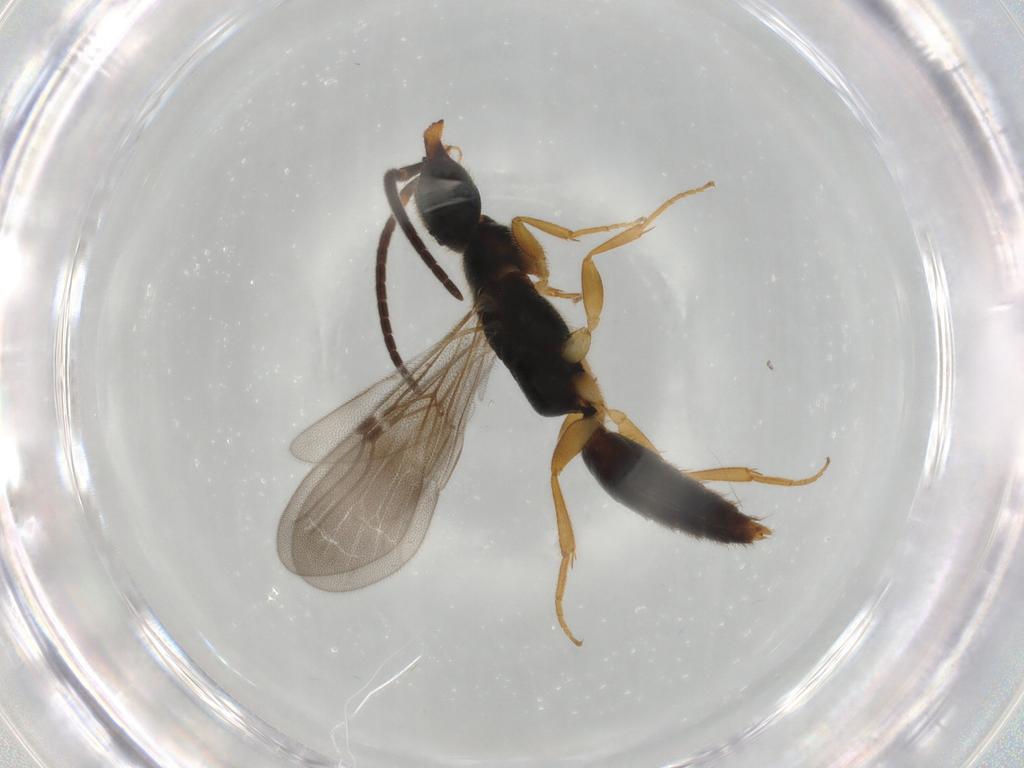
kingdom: Animalia
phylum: Arthropoda
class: Insecta
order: Hymenoptera
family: Bethylidae
